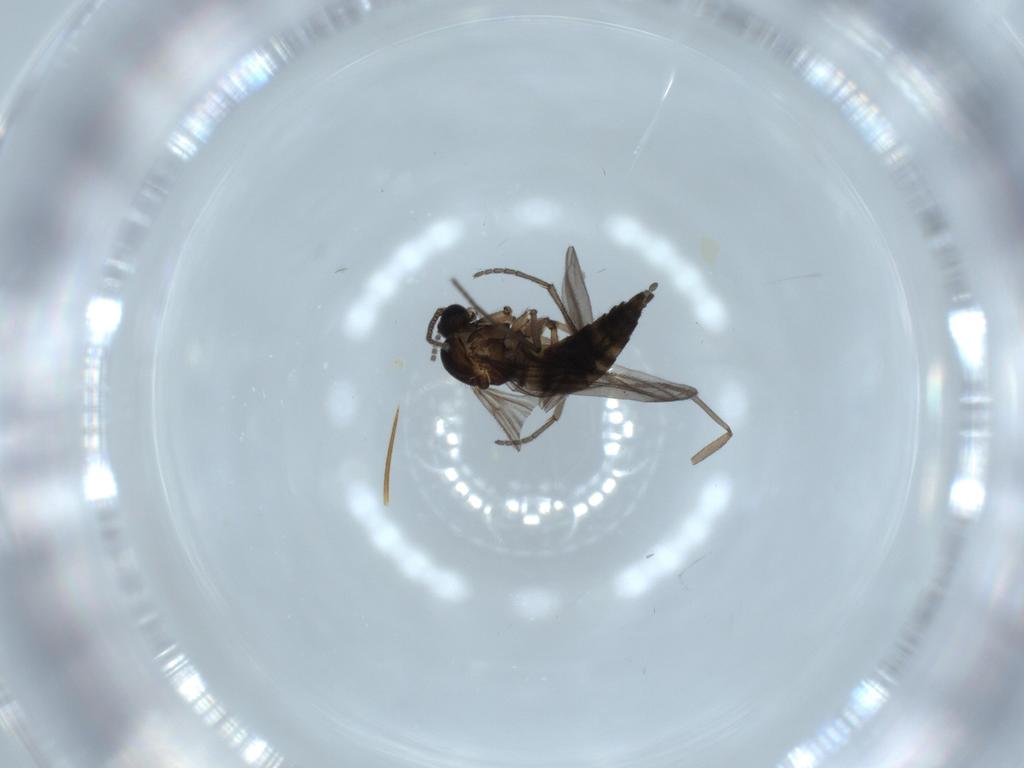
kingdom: Animalia
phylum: Arthropoda
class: Insecta
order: Diptera
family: Sciaridae
